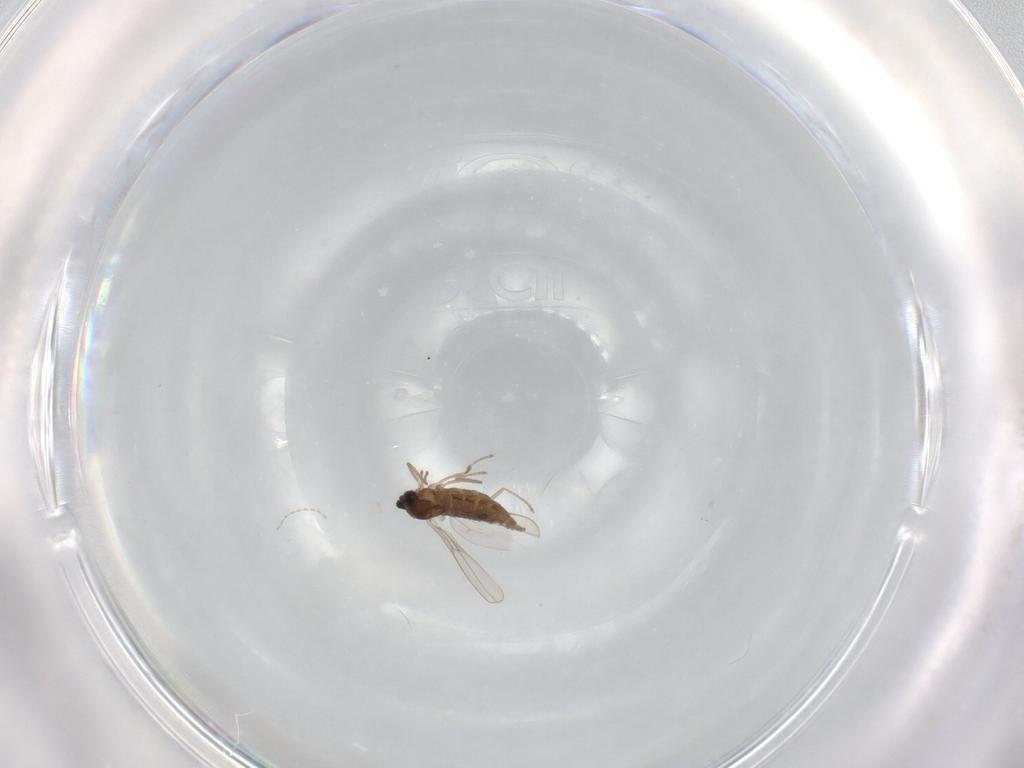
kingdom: Animalia
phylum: Arthropoda
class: Insecta
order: Diptera
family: Cecidomyiidae
